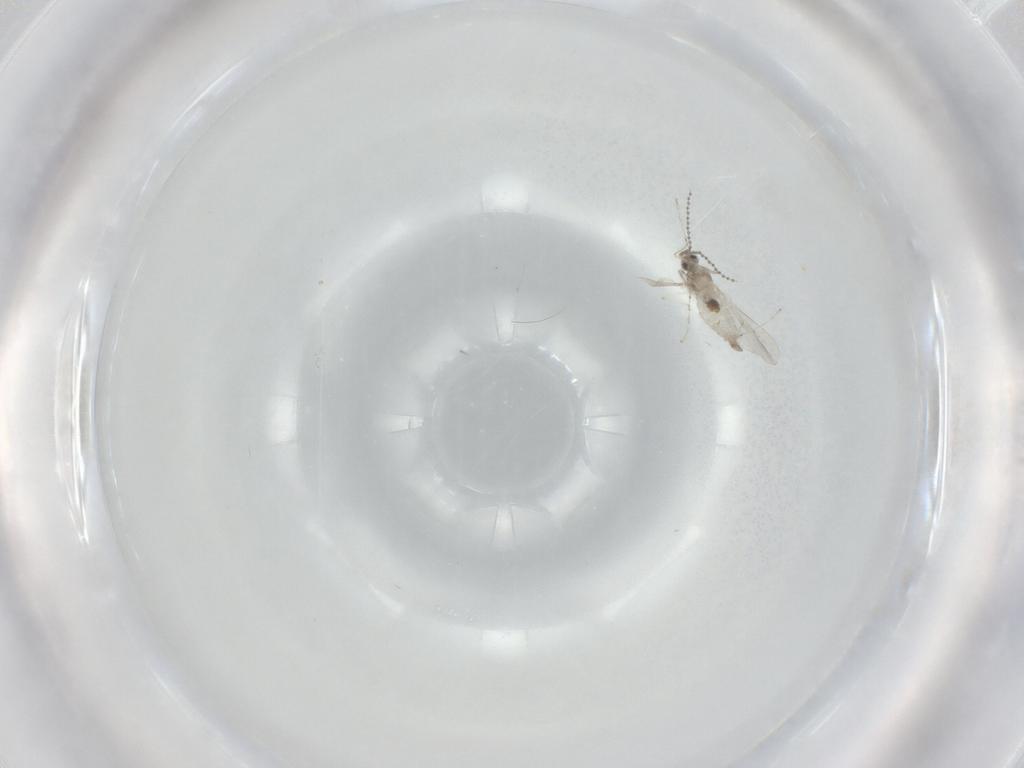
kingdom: Animalia
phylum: Arthropoda
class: Insecta
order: Diptera
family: Cecidomyiidae
